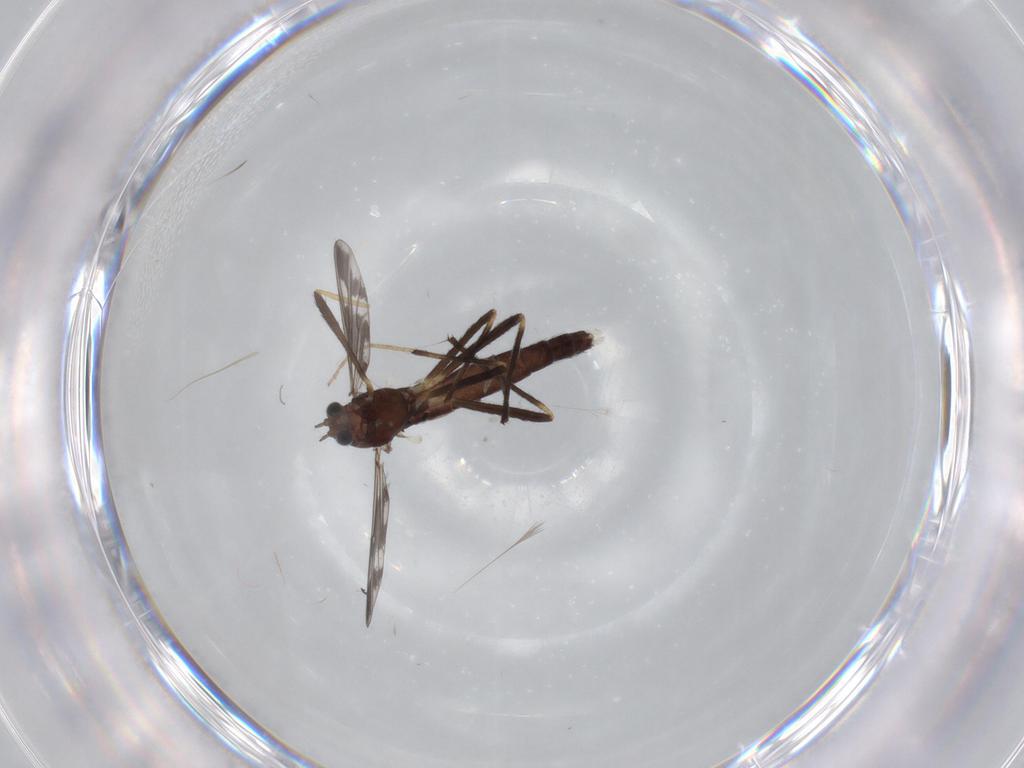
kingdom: Animalia
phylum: Arthropoda
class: Insecta
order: Diptera
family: Chironomidae
